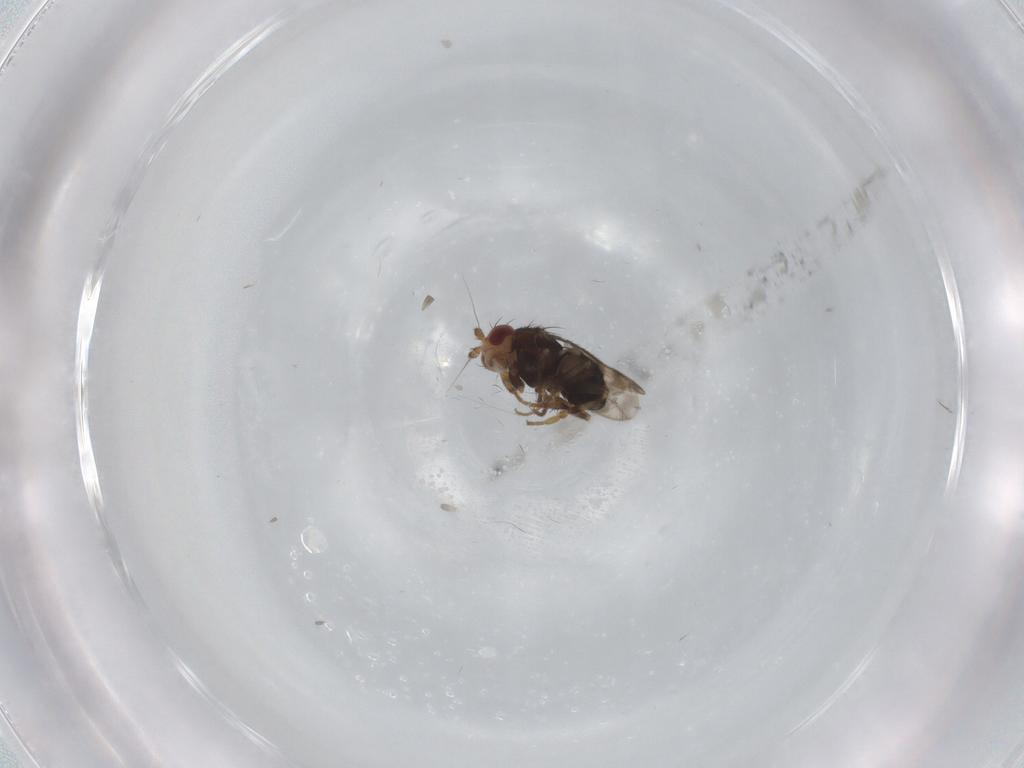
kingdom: Animalia
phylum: Arthropoda
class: Insecta
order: Diptera
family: Sphaeroceridae
